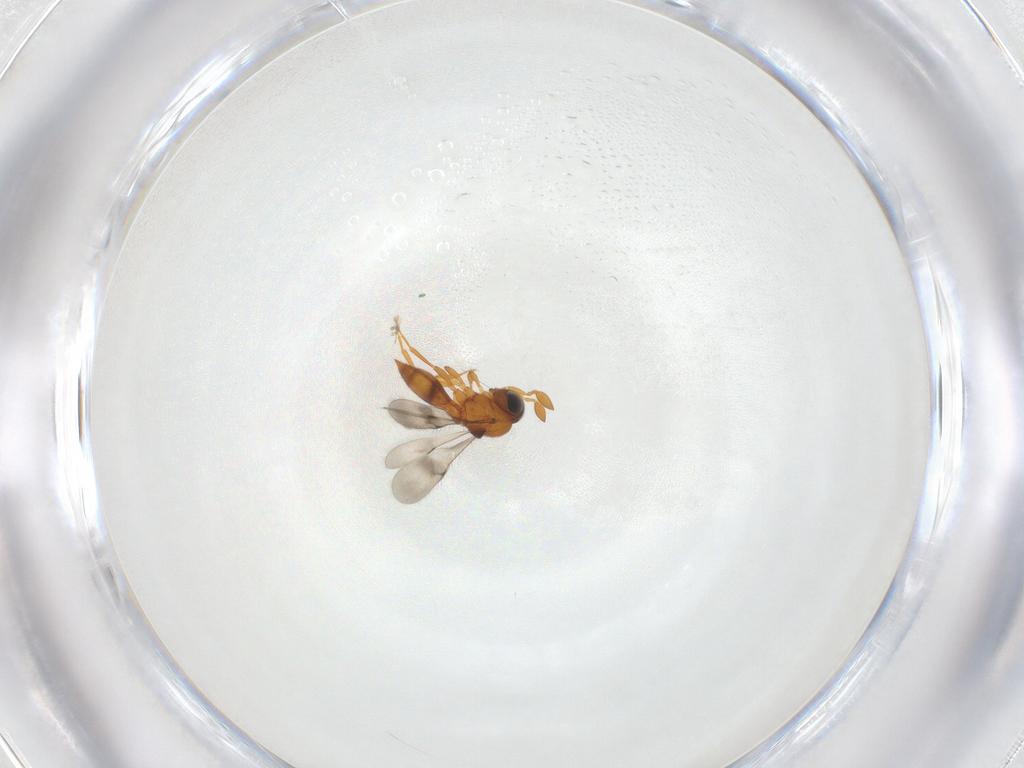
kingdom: Animalia
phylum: Arthropoda
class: Insecta
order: Hymenoptera
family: Scelionidae
